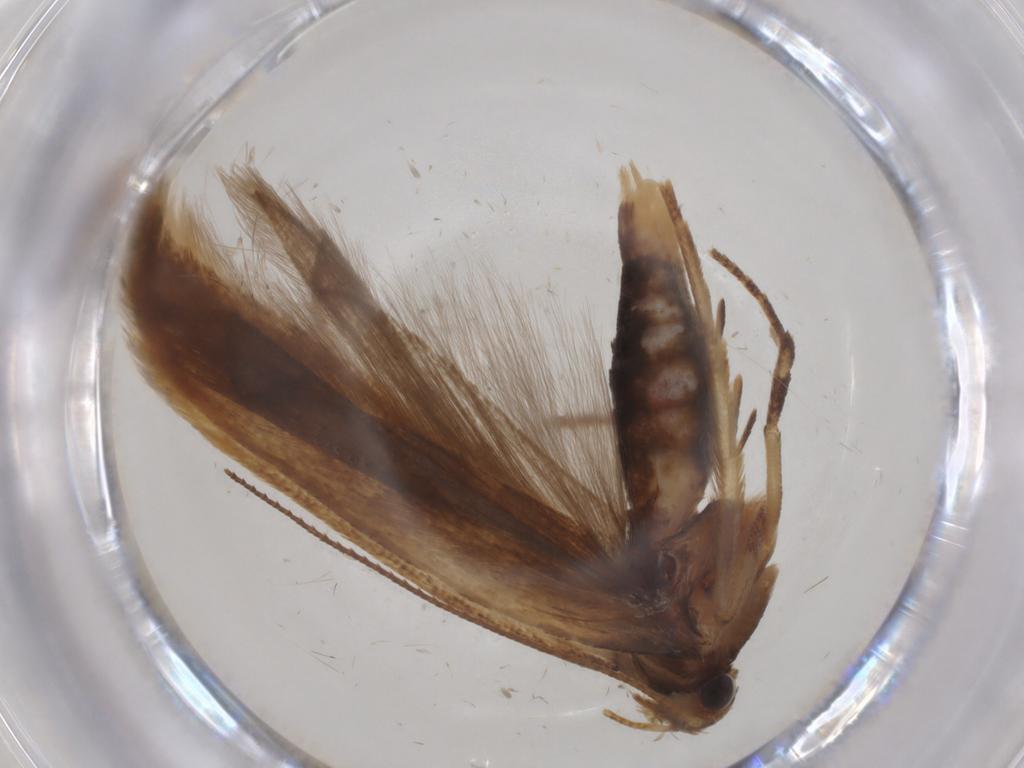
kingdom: Animalia
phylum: Arthropoda
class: Insecta
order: Lepidoptera
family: Gelechiidae
